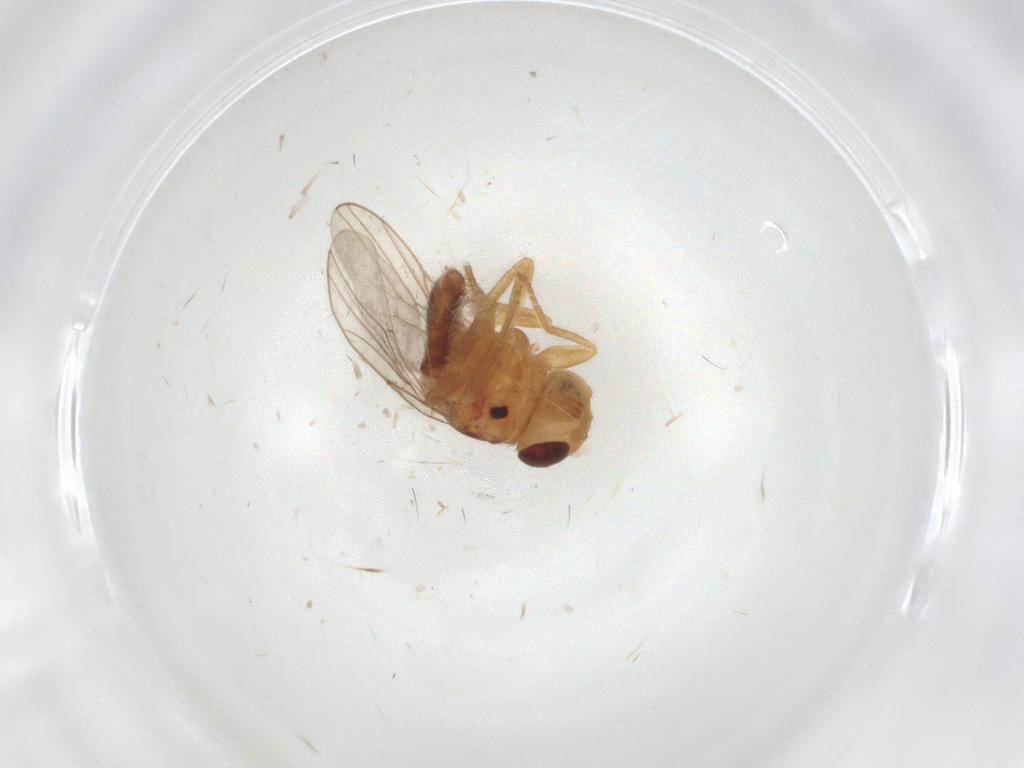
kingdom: Animalia
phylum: Arthropoda
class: Insecta
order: Diptera
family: Chloropidae
